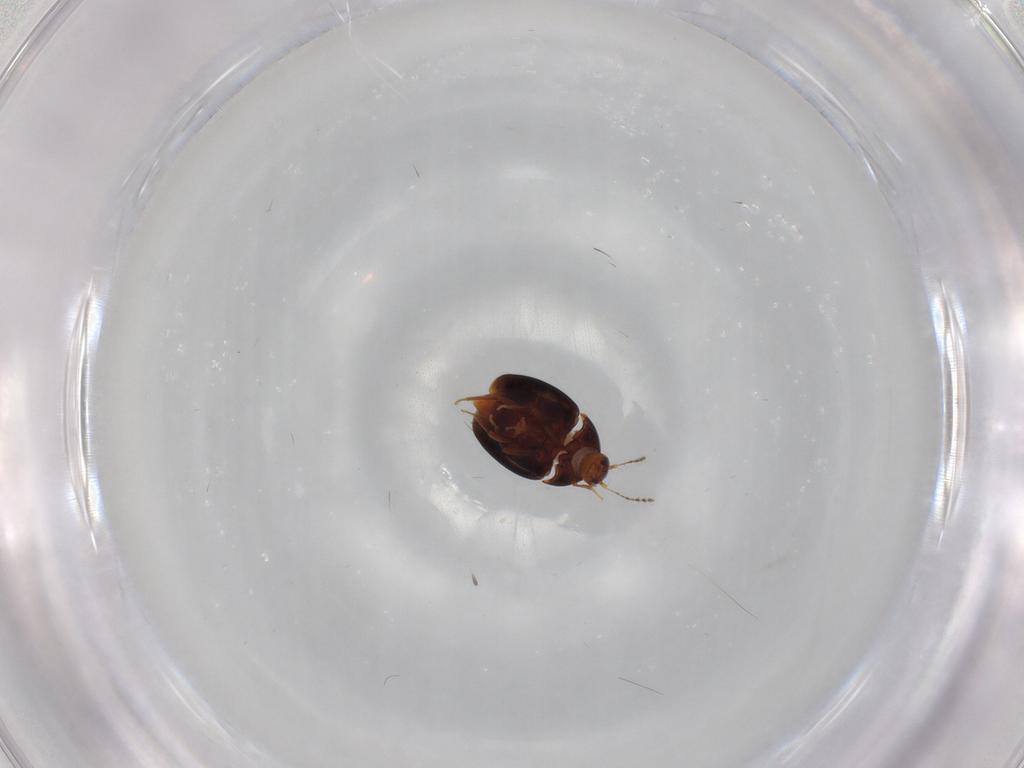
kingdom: Animalia
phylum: Arthropoda
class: Insecta
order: Coleoptera
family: Staphylinidae
